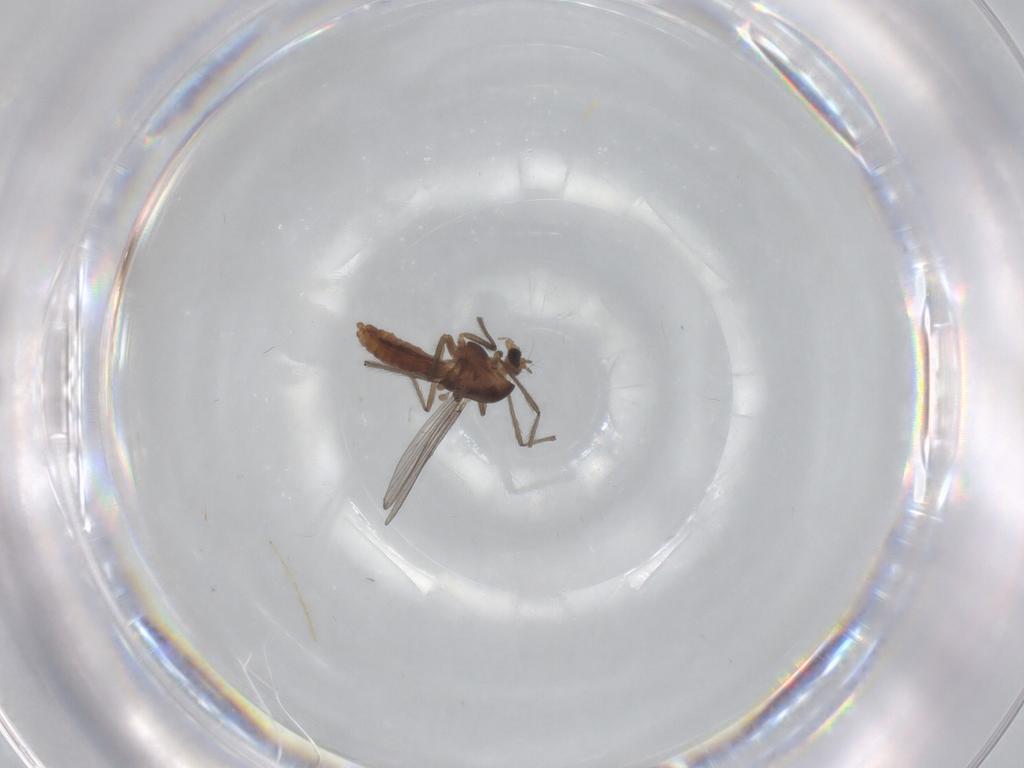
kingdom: Animalia
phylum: Arthropoda
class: Insecta
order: Diptera
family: Chironomidae
